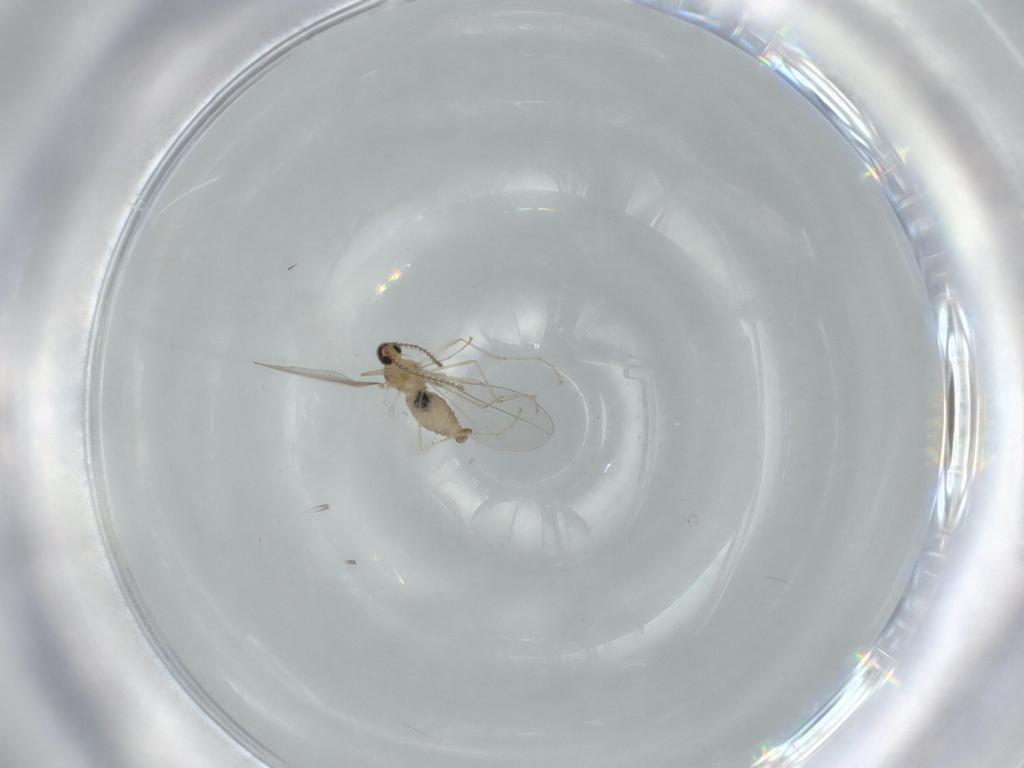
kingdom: Animalia
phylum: Arthropoda
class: Insecta
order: Diptera
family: Cecidomyiidae
